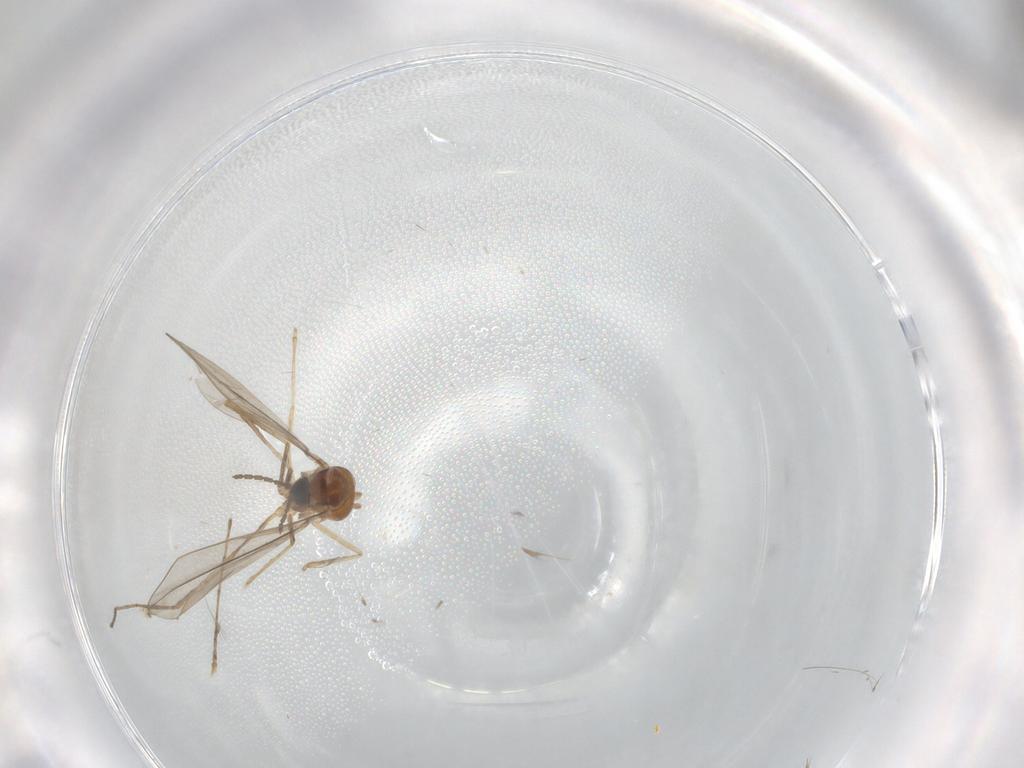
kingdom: Animalia
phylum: Arthropoda
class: Insecta
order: Diptera
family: Cecidomyiidae
